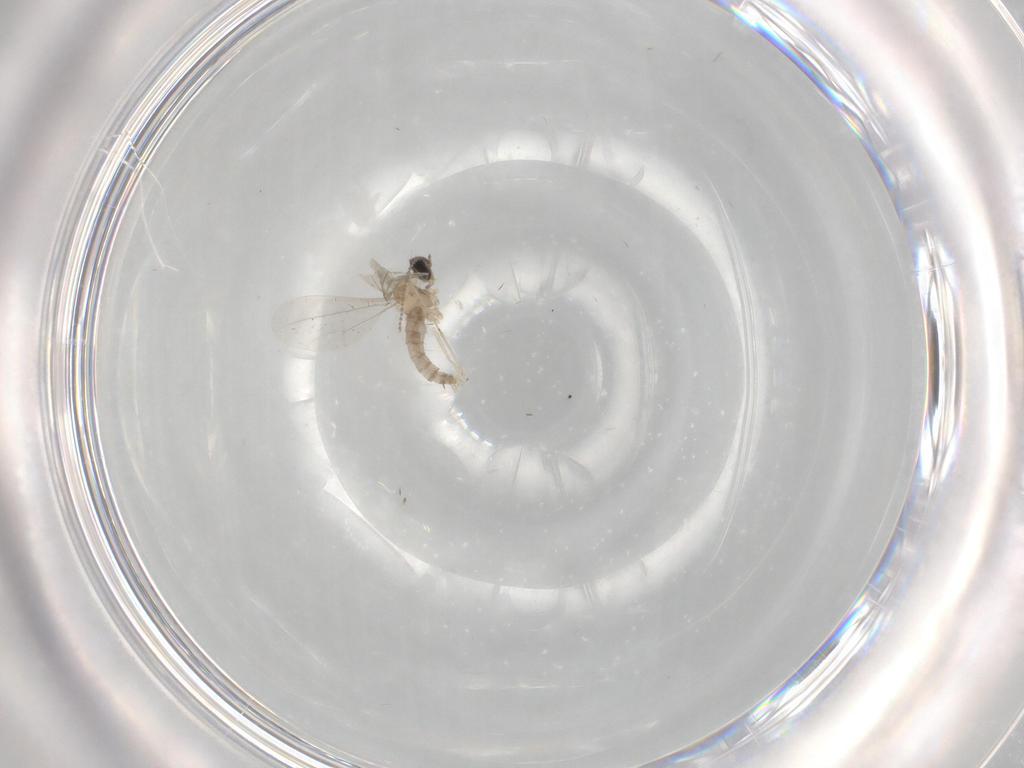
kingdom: Animalia
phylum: Arthropoda
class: Insecta
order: Diptera
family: Cecidomyiidae
